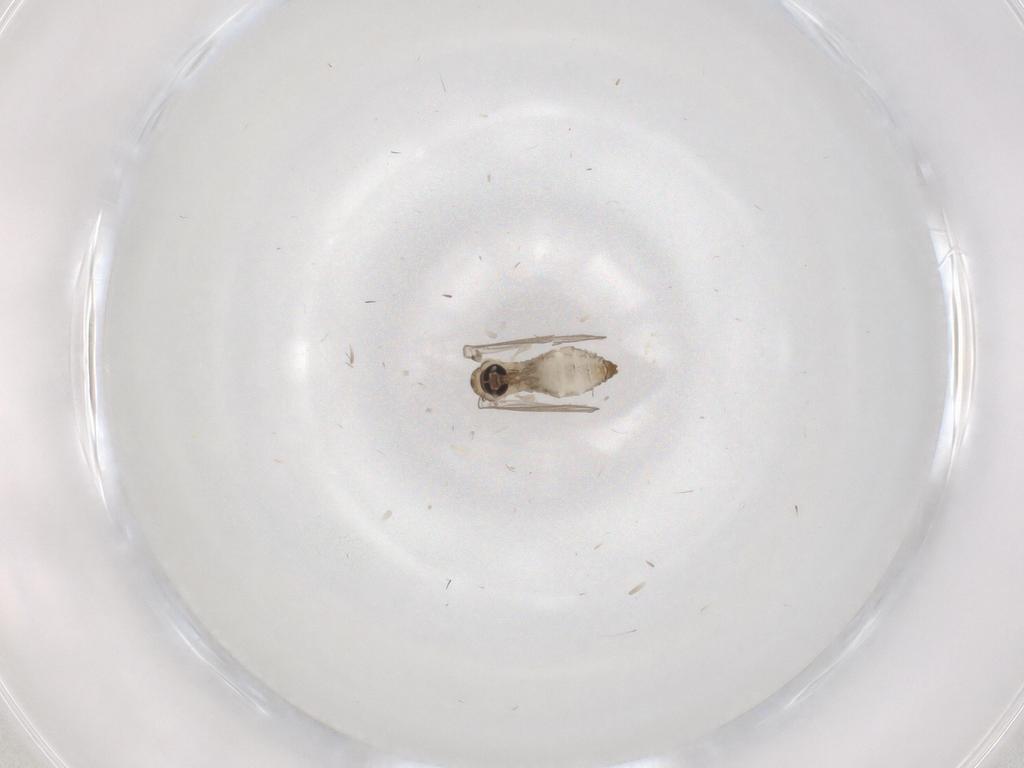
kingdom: Animalia
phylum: Arthropoda
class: Insecta
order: Diptera
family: Psychodidae
